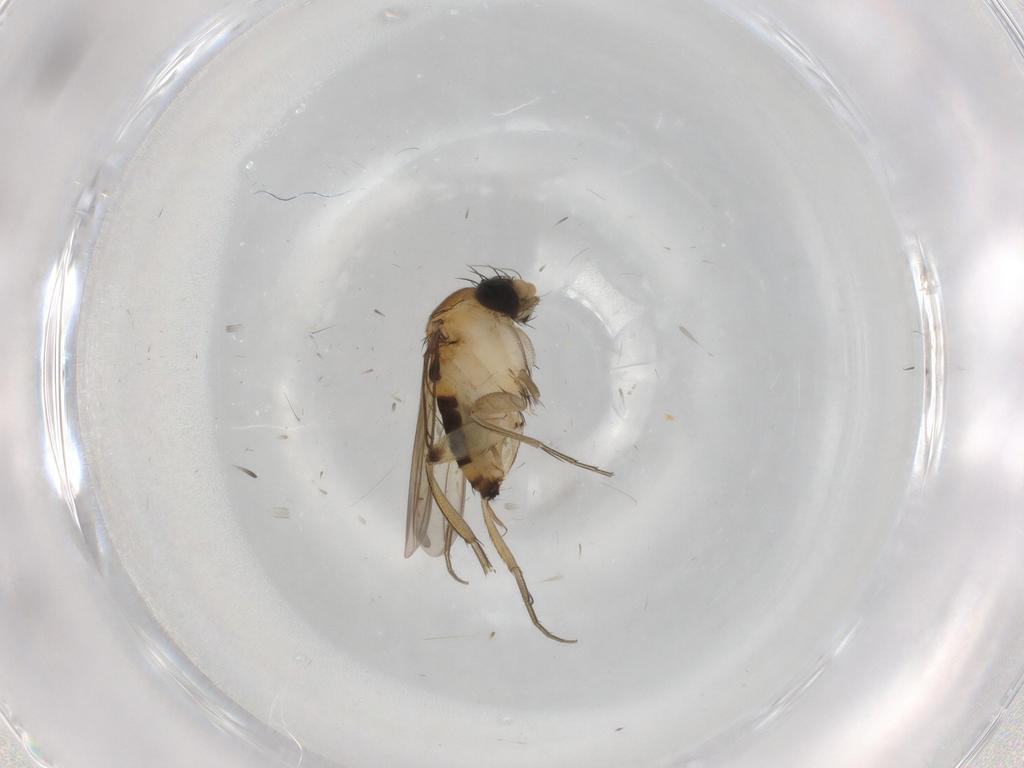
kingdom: Animalia
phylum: Arthropoda
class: Insecta
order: Diptera
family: Phoridae
